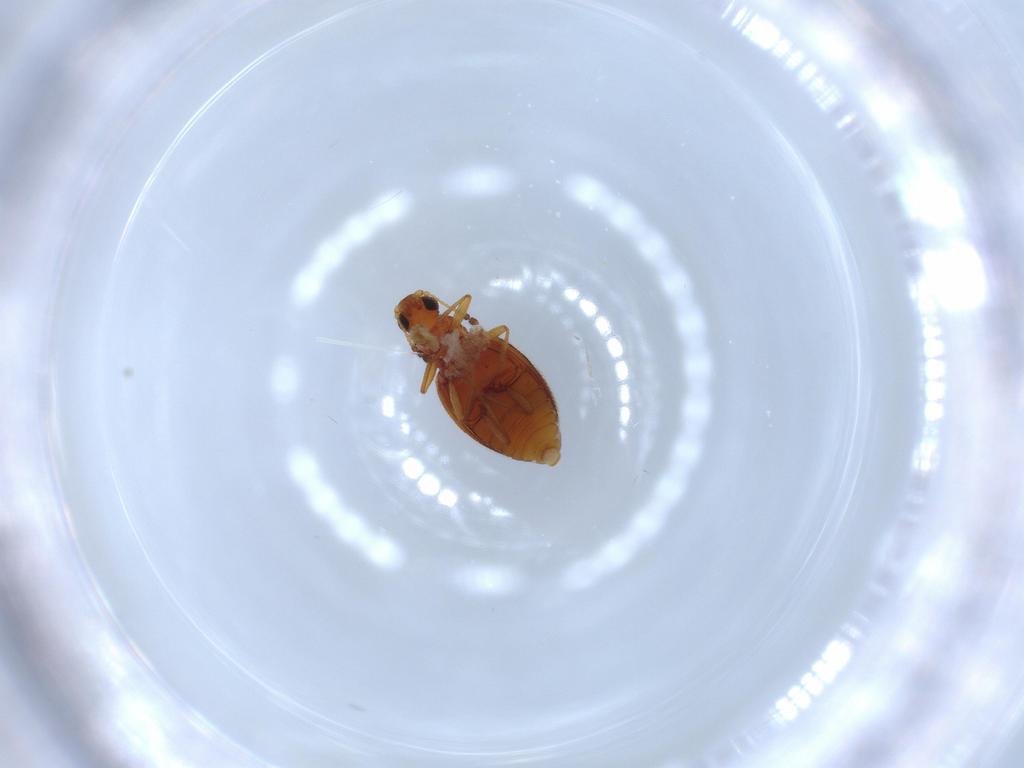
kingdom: Animalia
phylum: Arthropoda
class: Insecta
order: Coleoptera
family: Latridiidae
